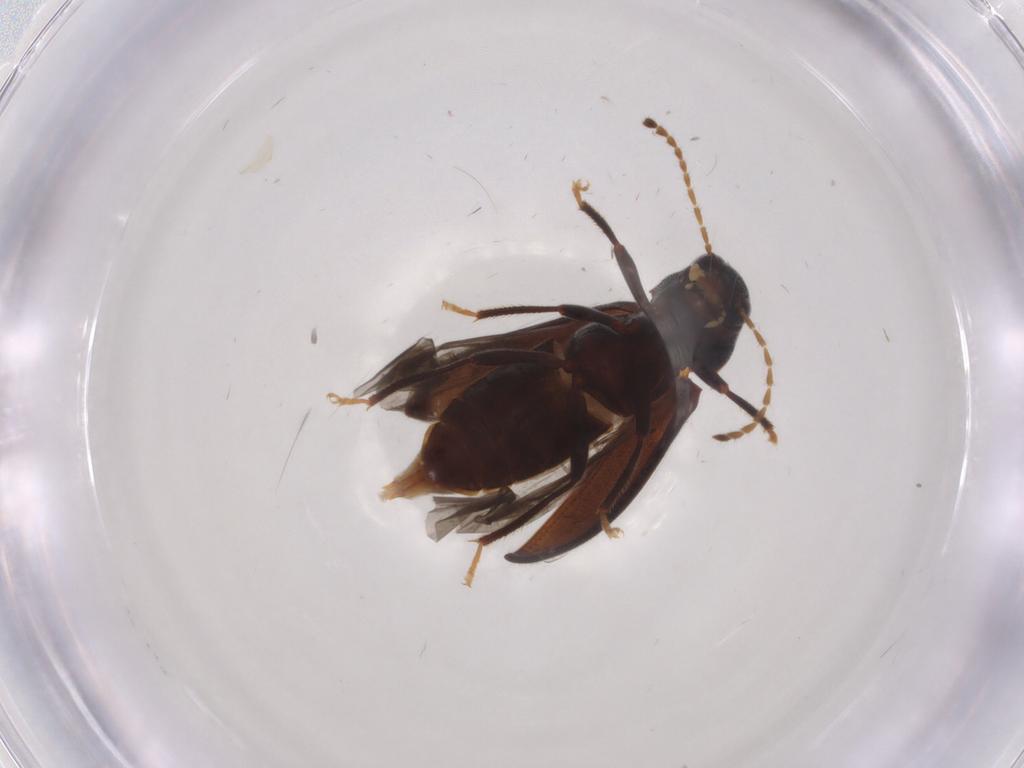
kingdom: Animalia
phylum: Arthropoda
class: Insecta
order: Coleoptera
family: Ptilodactylidae
